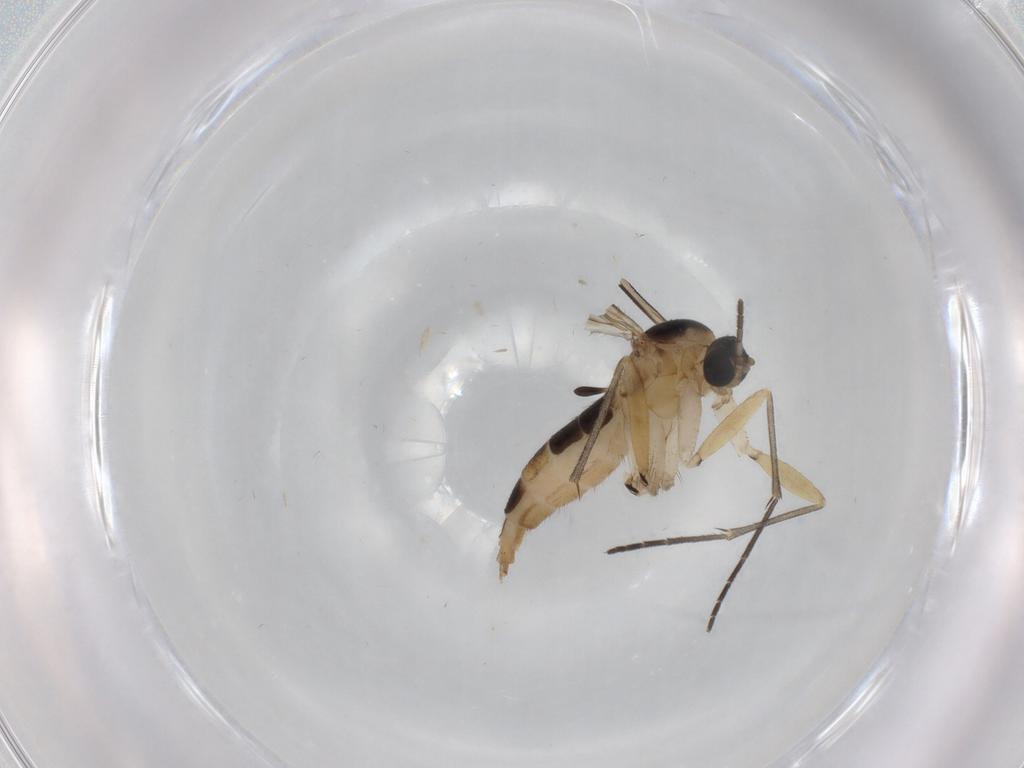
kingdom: Animalia
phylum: Arthropoda
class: Insecta
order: Diptera
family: Sciaridae
